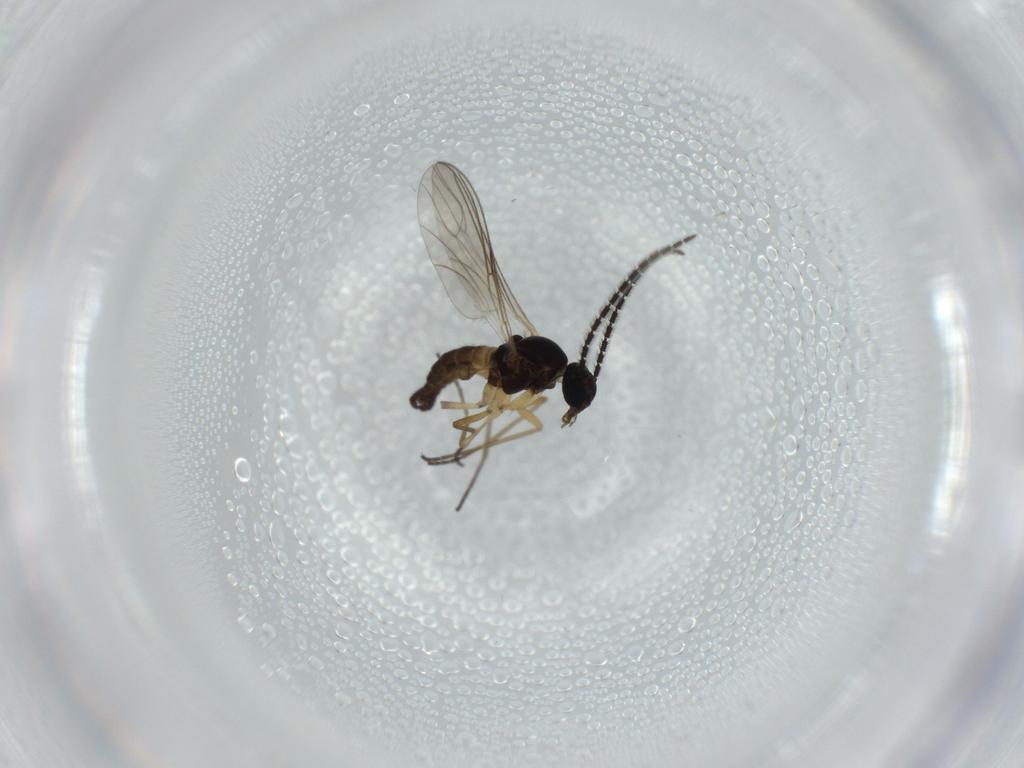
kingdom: Animalia
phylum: Arthropoda
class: Insecta
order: Diptera
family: Sciaridae
